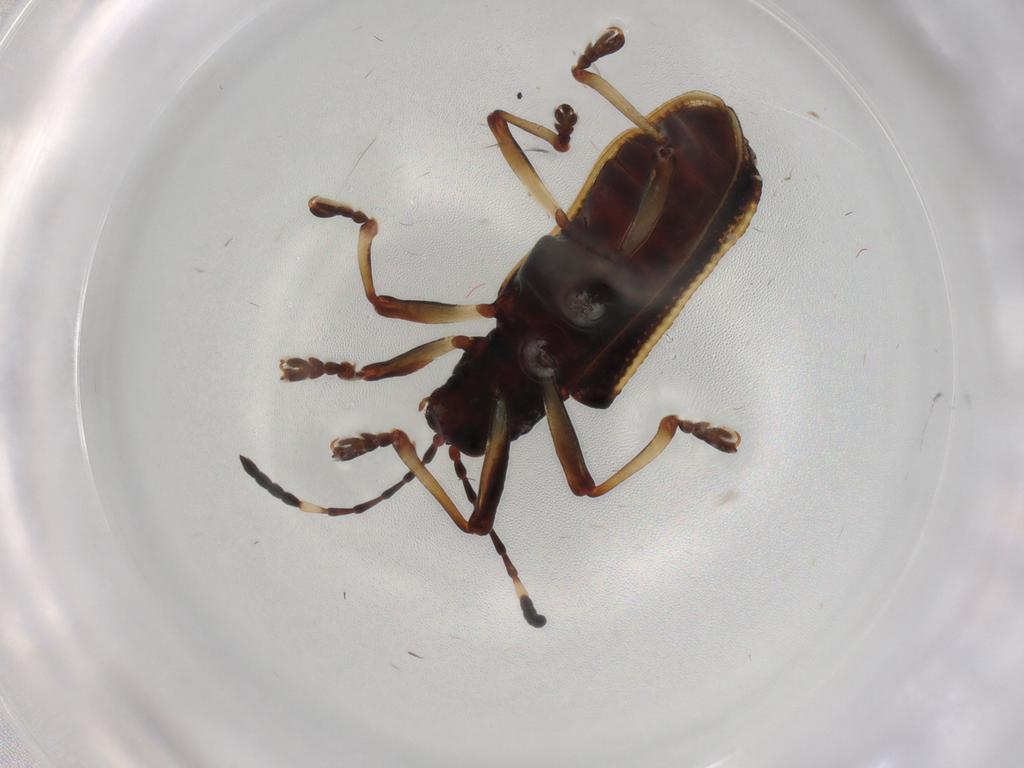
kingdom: Animalia
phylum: Arthropoda
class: Insecta
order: Coleoptera
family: Chrysomelidae
